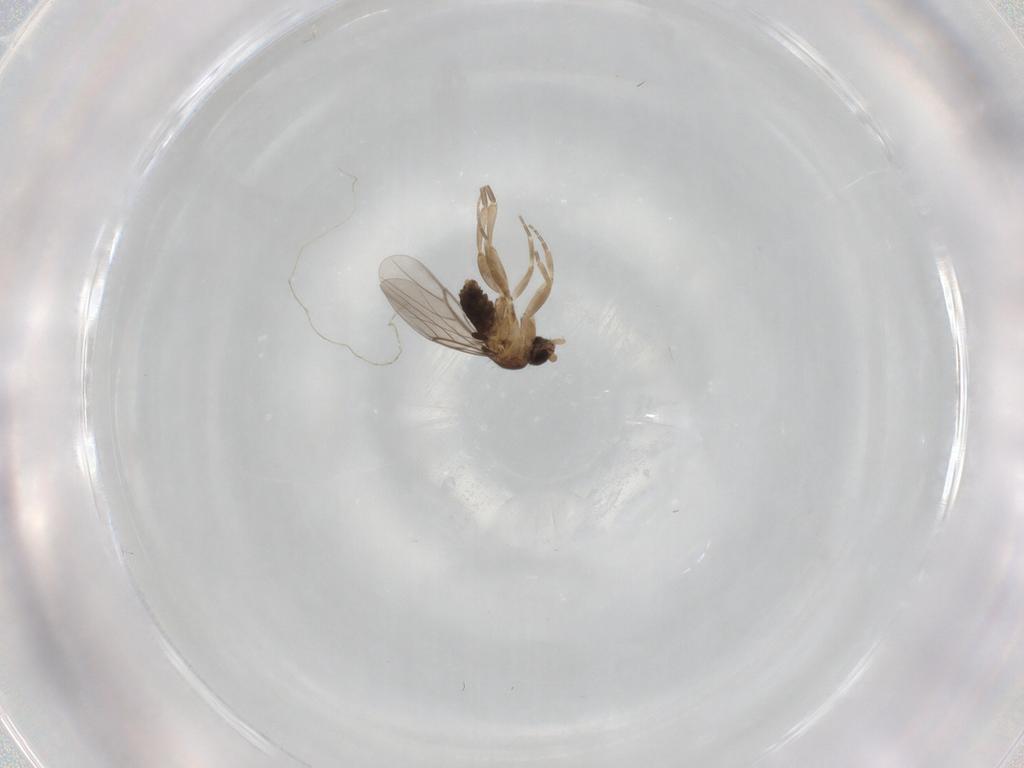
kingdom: Animalia
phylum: Arthropoda
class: Insecta
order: Diptera
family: Phoridae
